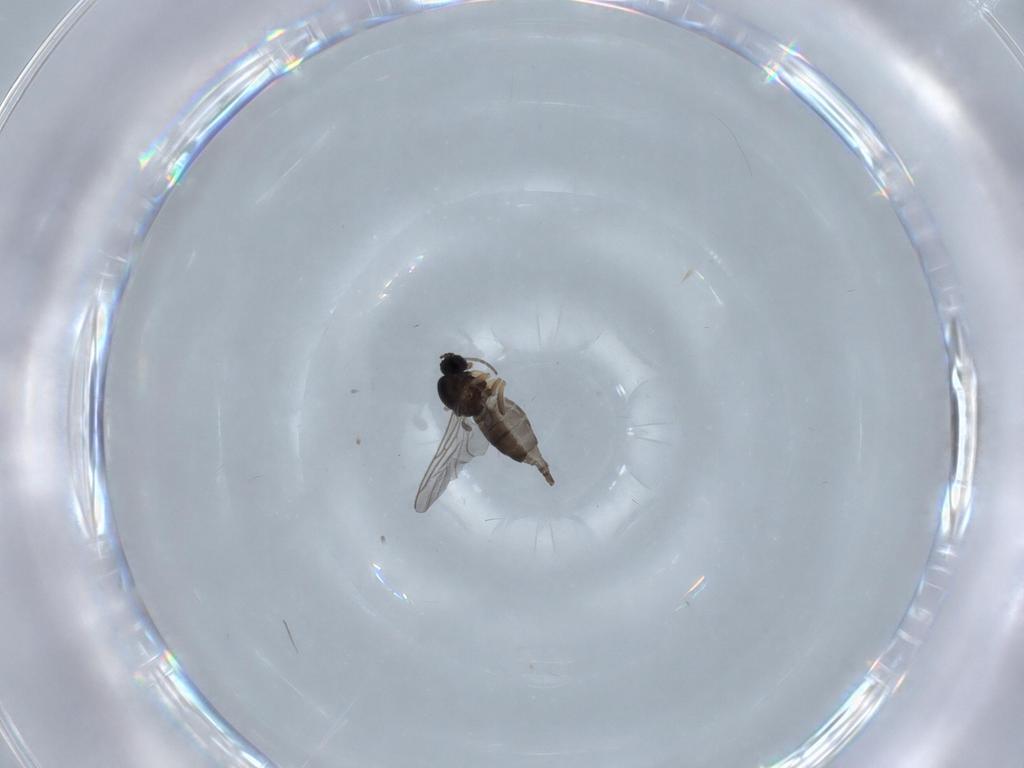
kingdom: Animalia
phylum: Arthropoda
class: Insecta
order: Diptera
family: Sciaridae
